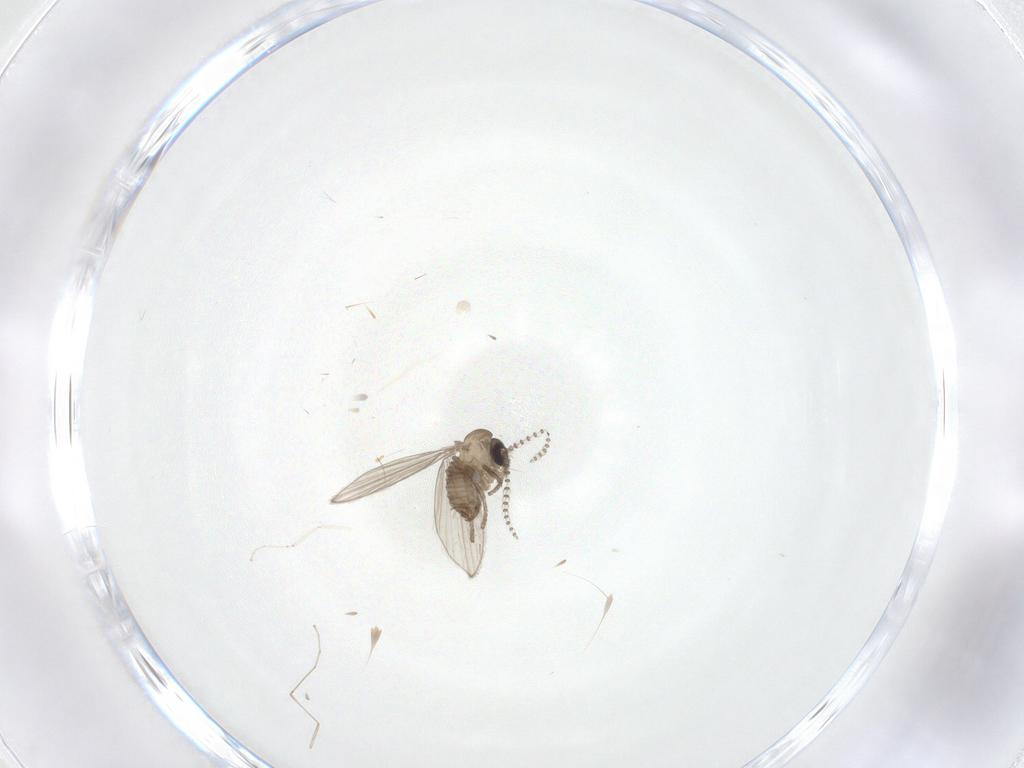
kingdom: Animalia
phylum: Arthropoda
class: Insecta
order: Diptera
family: Psychodidae
